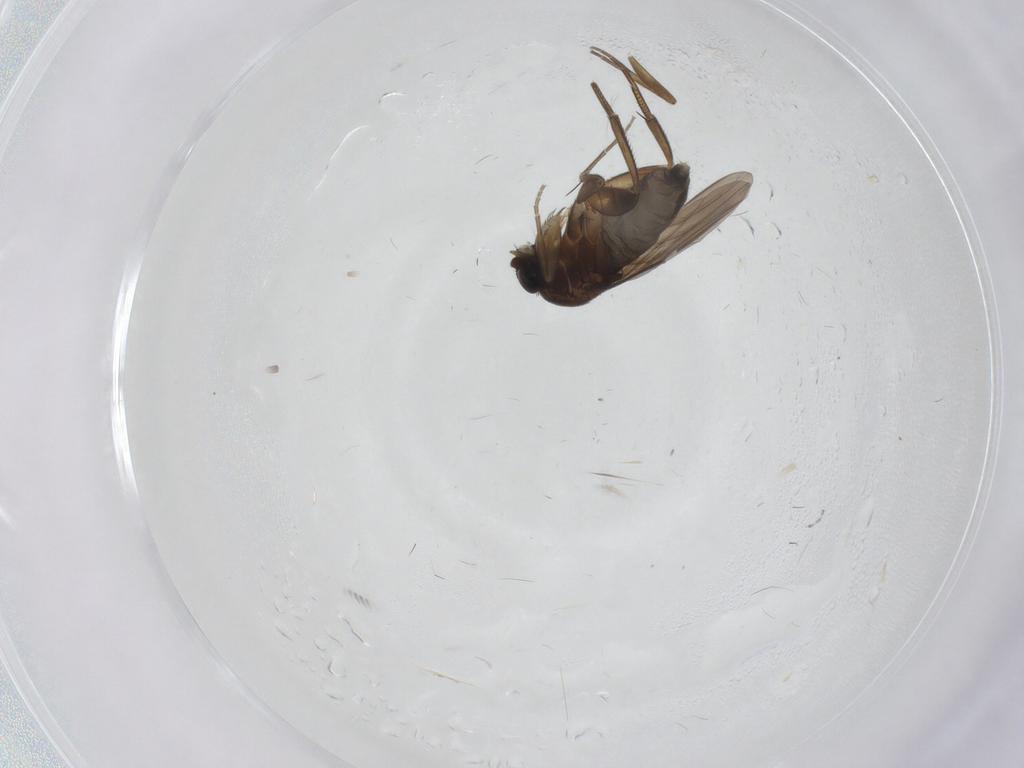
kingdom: Animalia
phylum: Arthropoda
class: Insecta
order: Diptera
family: Phoridae
